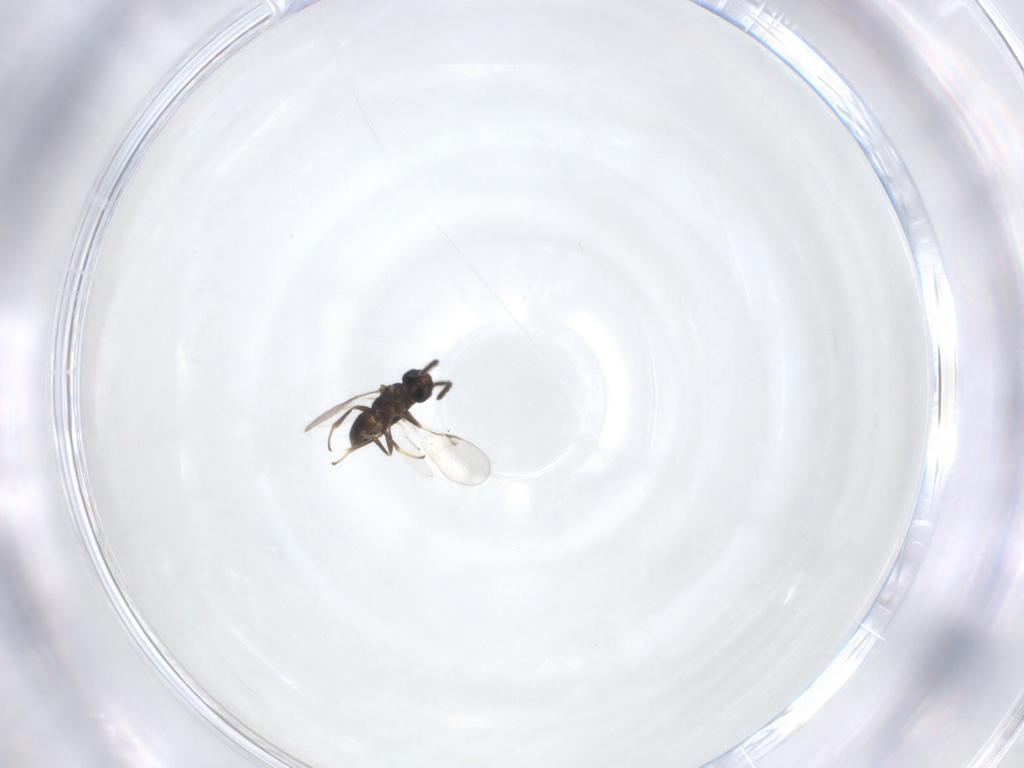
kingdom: Animalia
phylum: Arthropoda
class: Insecta
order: Hymenoptera
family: Encyrtidae
